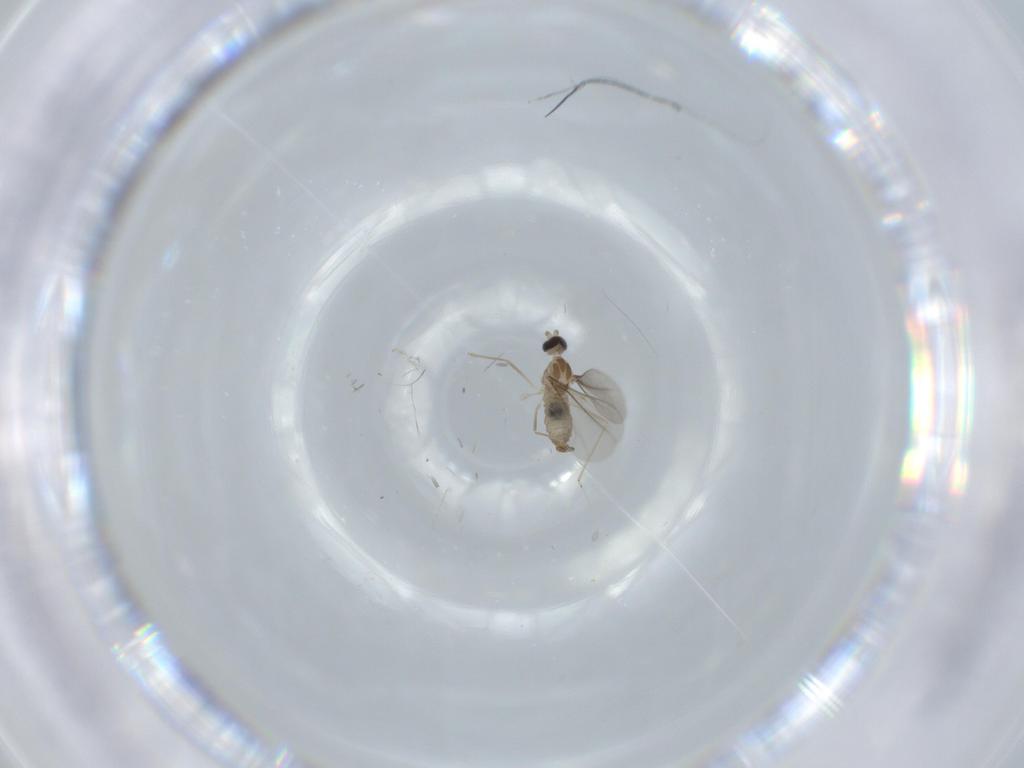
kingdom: Animalia
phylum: Arthropoda
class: Insecta
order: Diptera
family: Cecidomyiidae
